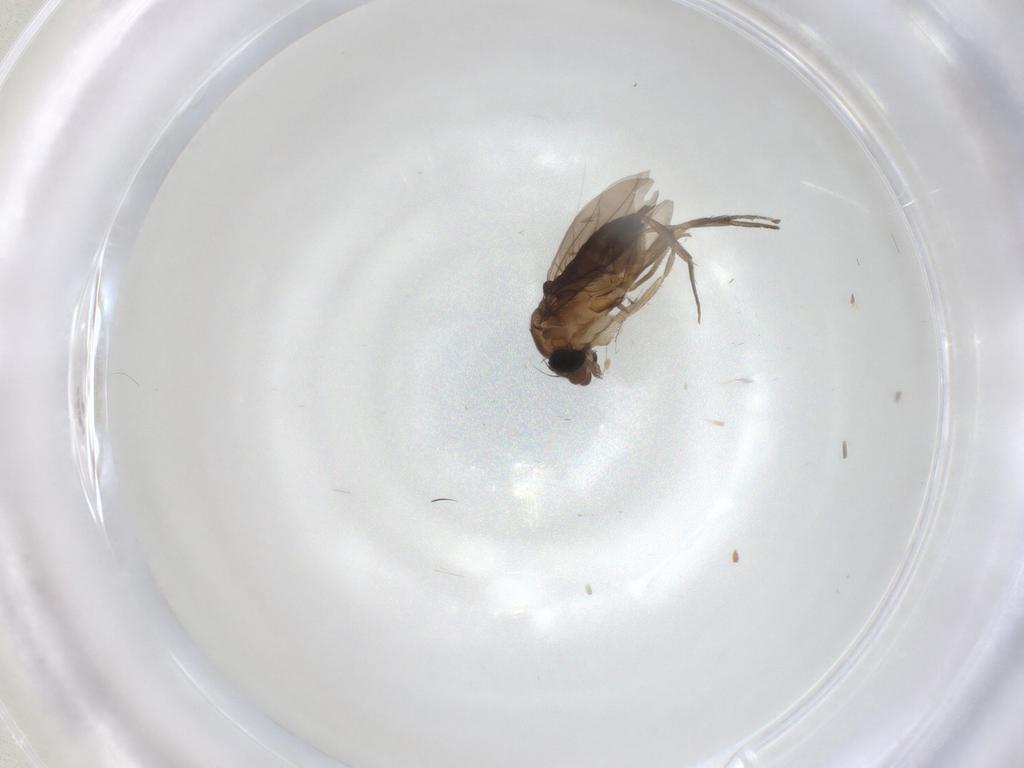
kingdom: Animalia
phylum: Arthropoda
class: Insecta
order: Diptera
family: Phoridae
